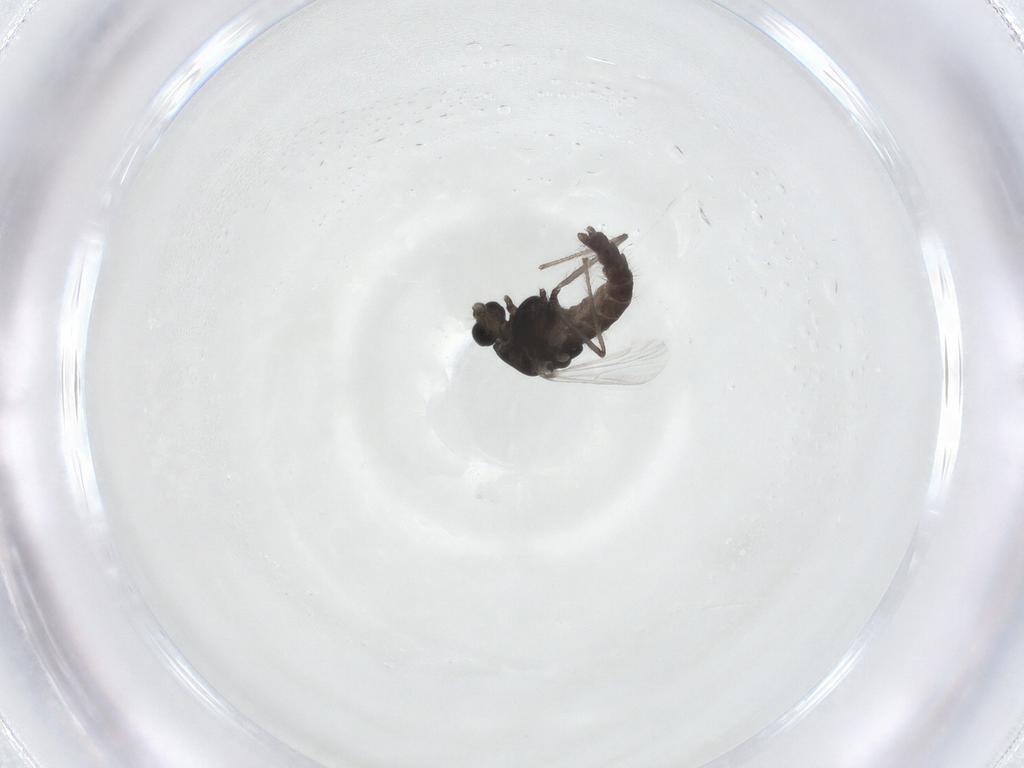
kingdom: Animalia
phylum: Arthropoda
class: Insecta
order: Diptera
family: Chironomidae
